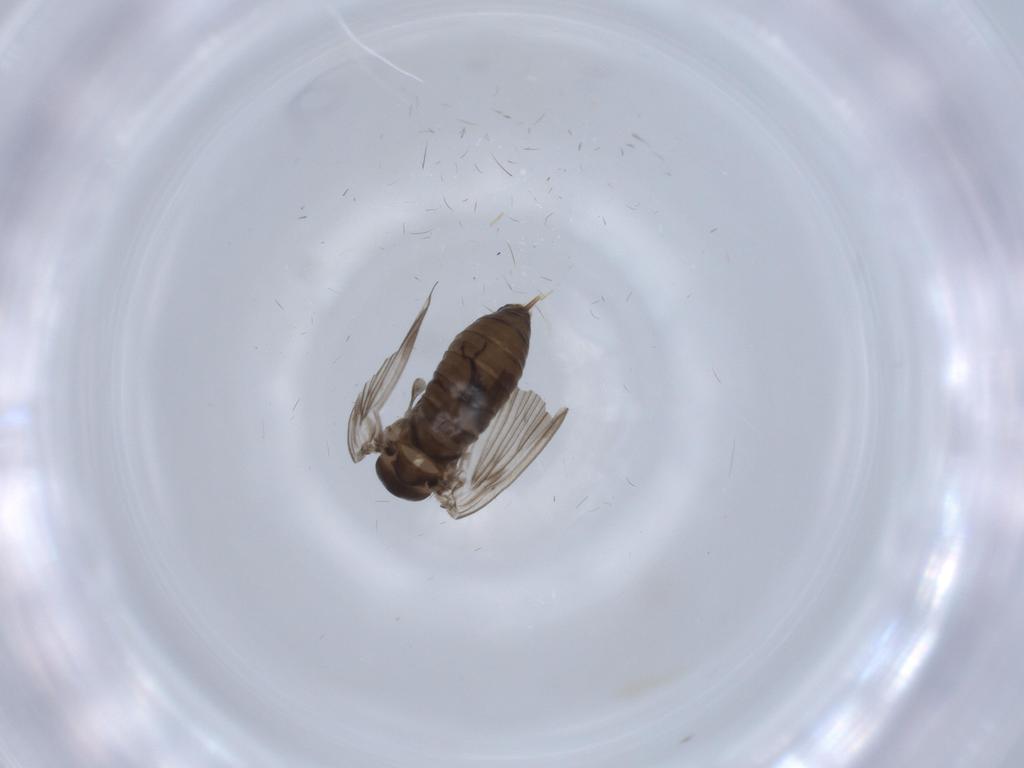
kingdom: Animalia
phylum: Arthropoda
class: Insecta
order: Diptera
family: Psychodidae
